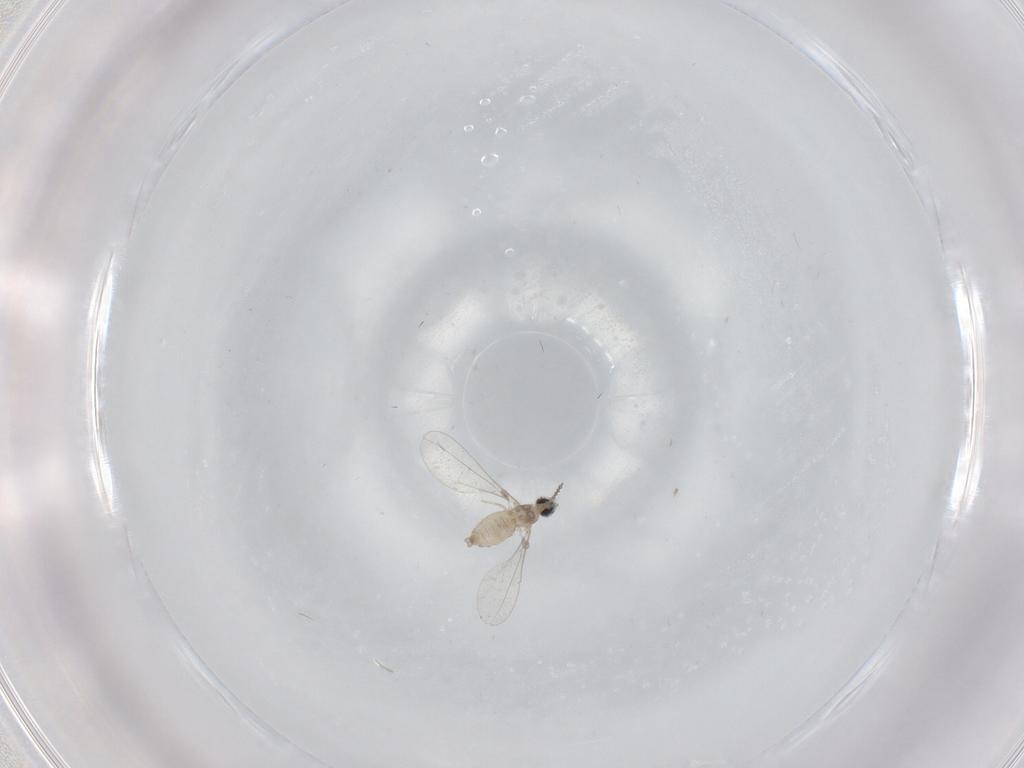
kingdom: Animalia
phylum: Arthropoda
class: Insecta
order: Diptera
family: Cecidomyiidae
